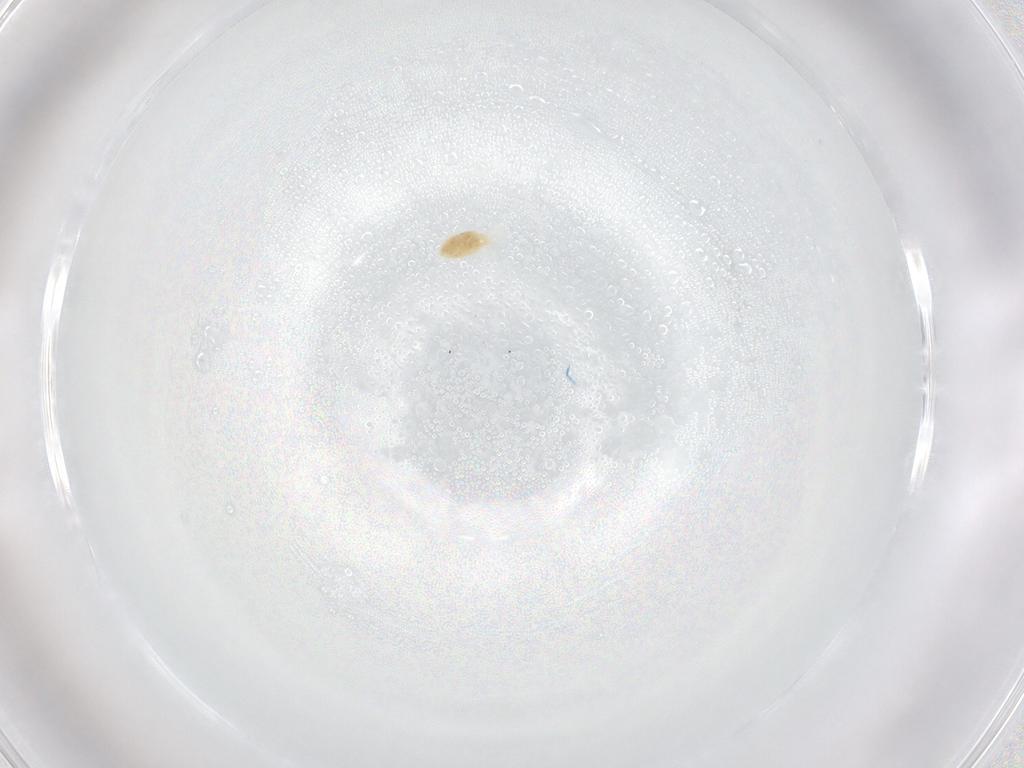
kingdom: Animalia
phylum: Arthropoda
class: Arachnida
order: Trombidiformes
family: Eupodidae
